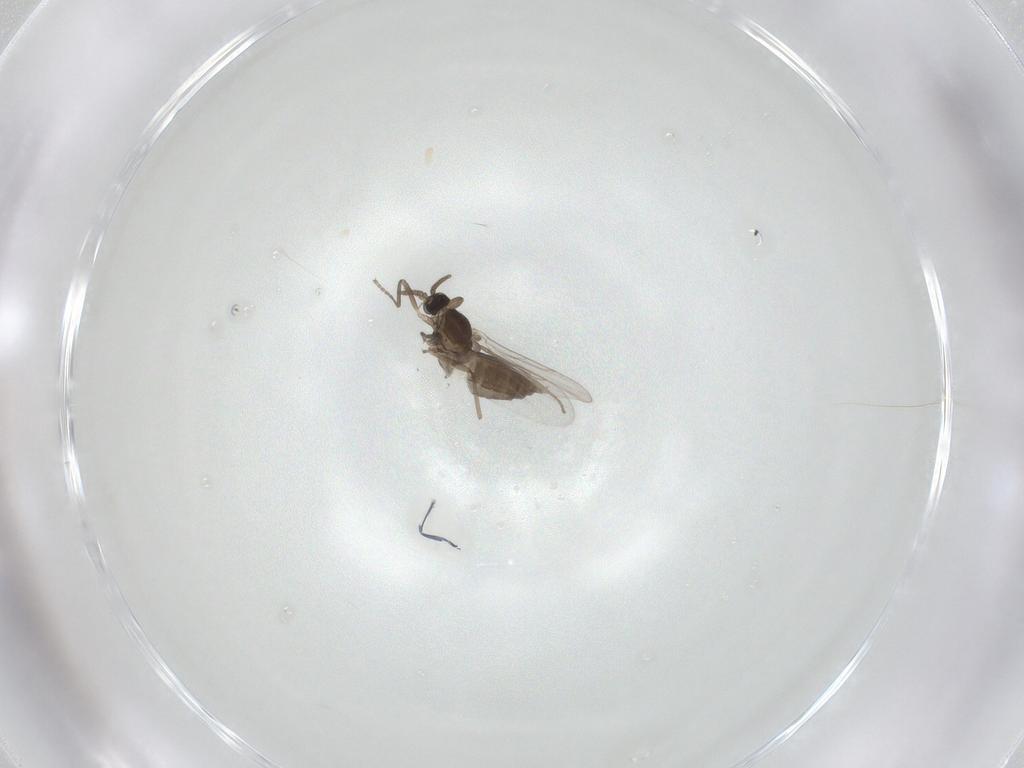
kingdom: Animalia
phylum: Arthropoda
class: Insecta
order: Diptera
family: Cecidomyiidae
